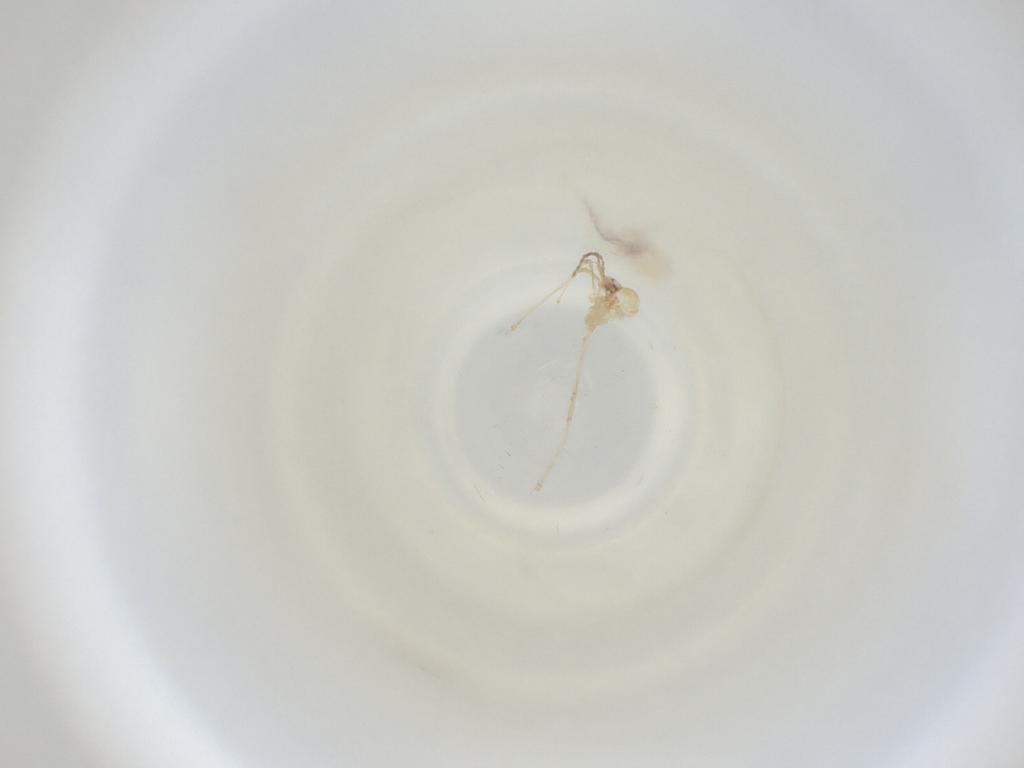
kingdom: Animalia
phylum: Arthropoda
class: Insecta
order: Diptera
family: Cecidomyiidae
